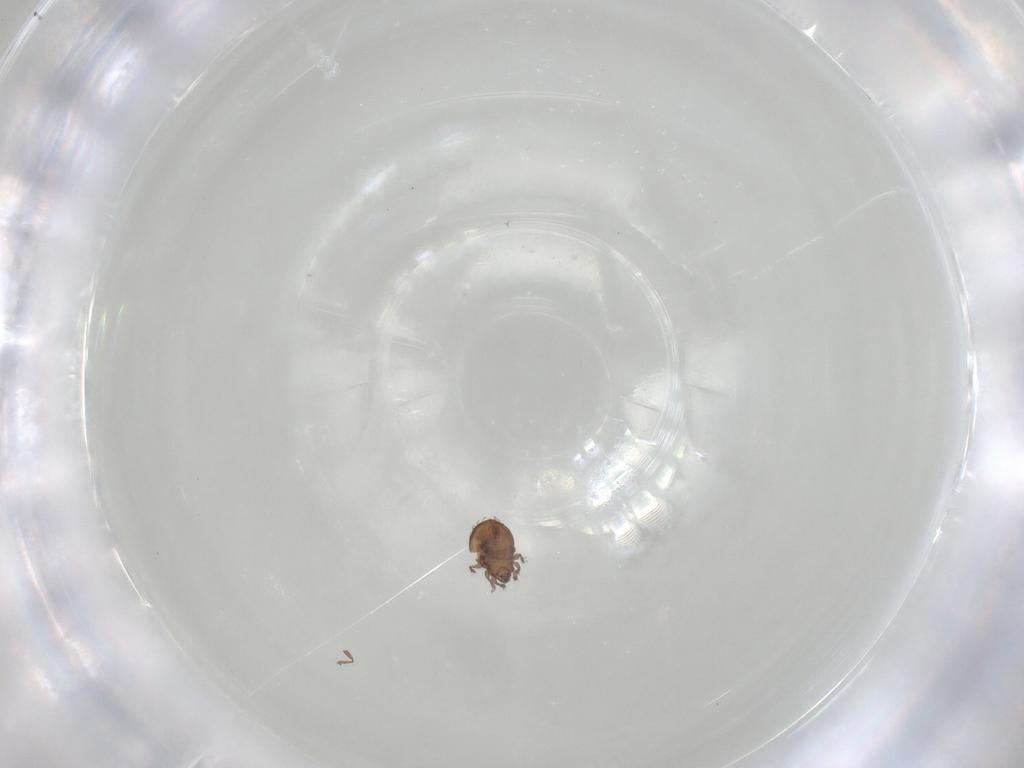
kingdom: Animalia
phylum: Arthropoda
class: Arachnida
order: Sarcoptiformes
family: Scheloribatidae
